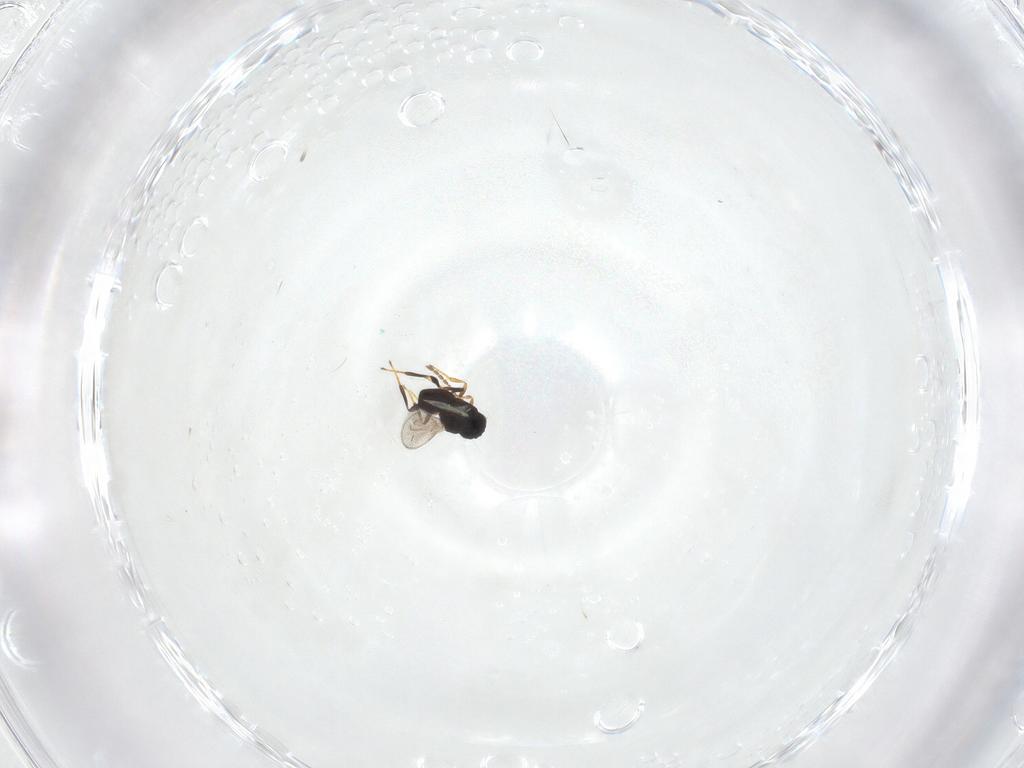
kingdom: Animalia
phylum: Arthropoda
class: Insecta
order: Hymenoptera
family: Platygastridae
